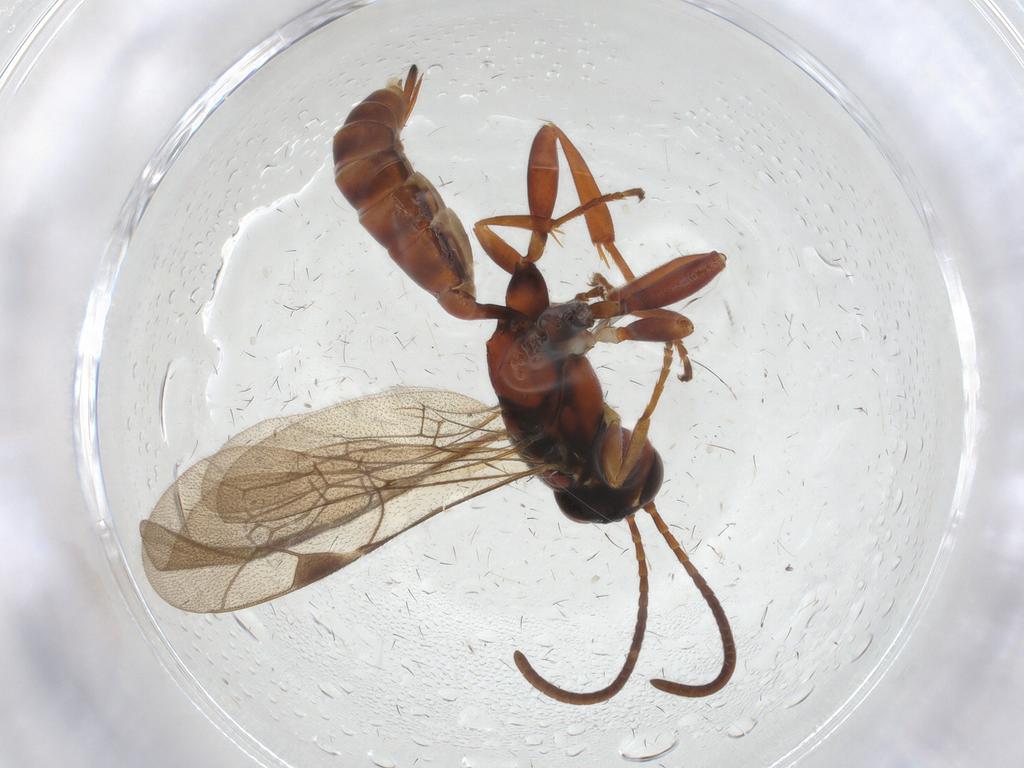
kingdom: Animalia
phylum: Arthropoda
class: Insecta
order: Hymenoptera
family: Ichneumonidae
